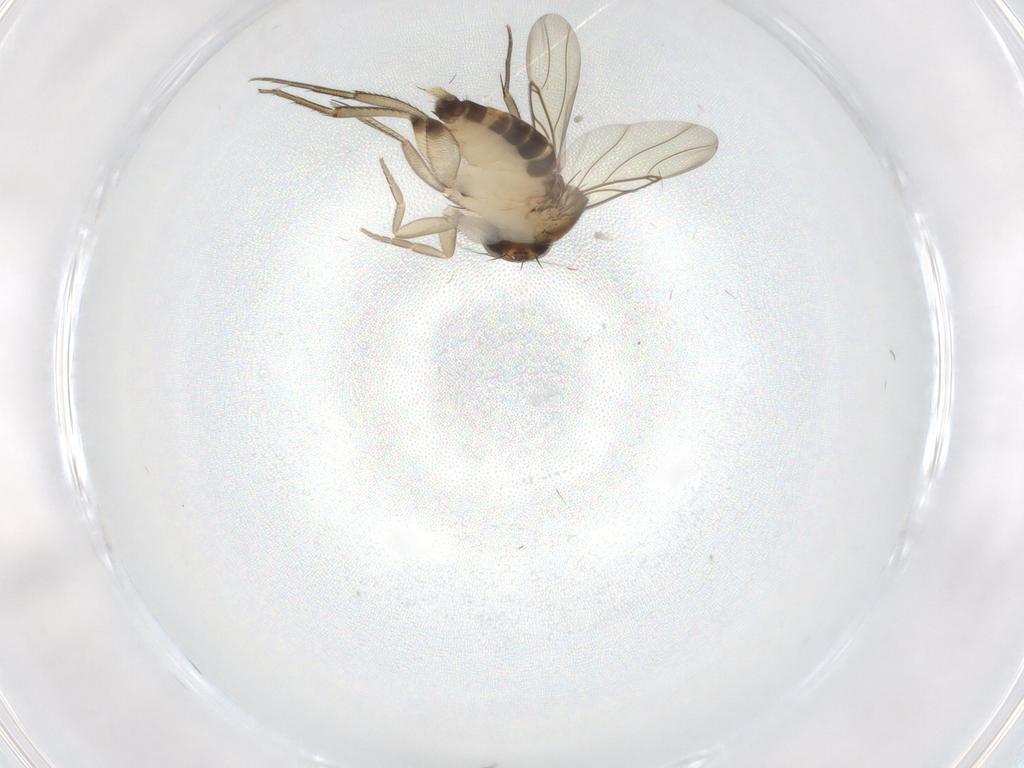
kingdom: Animalia
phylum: Arthropoda
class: Insecta
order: Diptera
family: Phoridae
